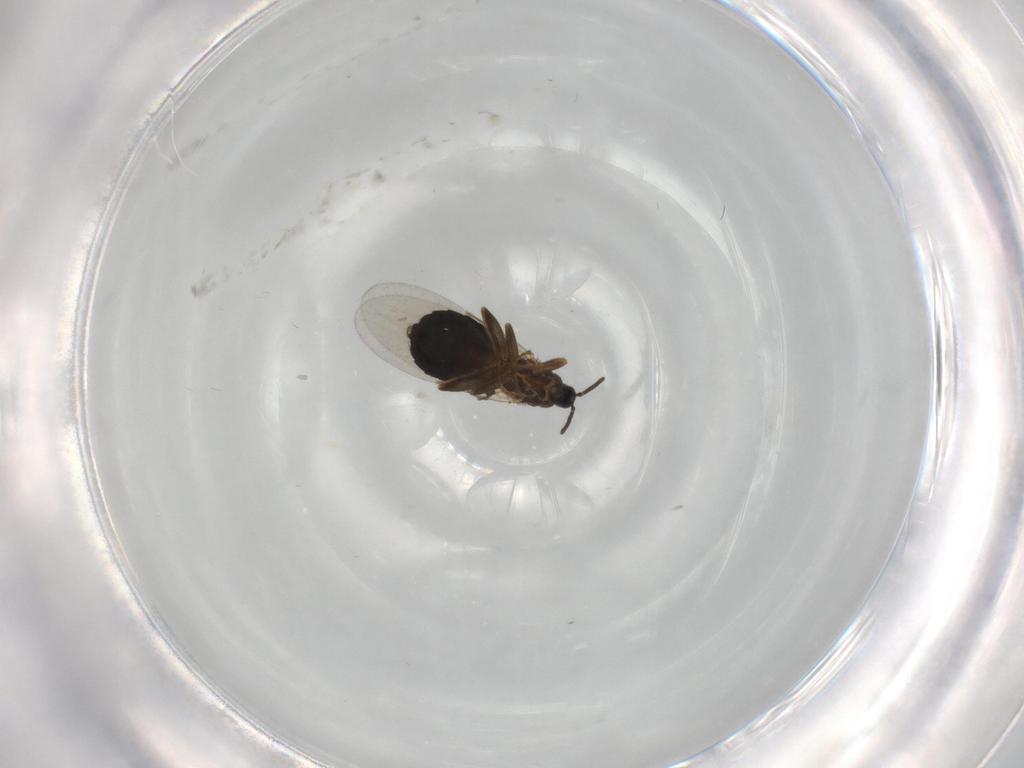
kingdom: Animalia
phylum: Arthropoda
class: Insecta
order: Diptera
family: Scatopsidae
